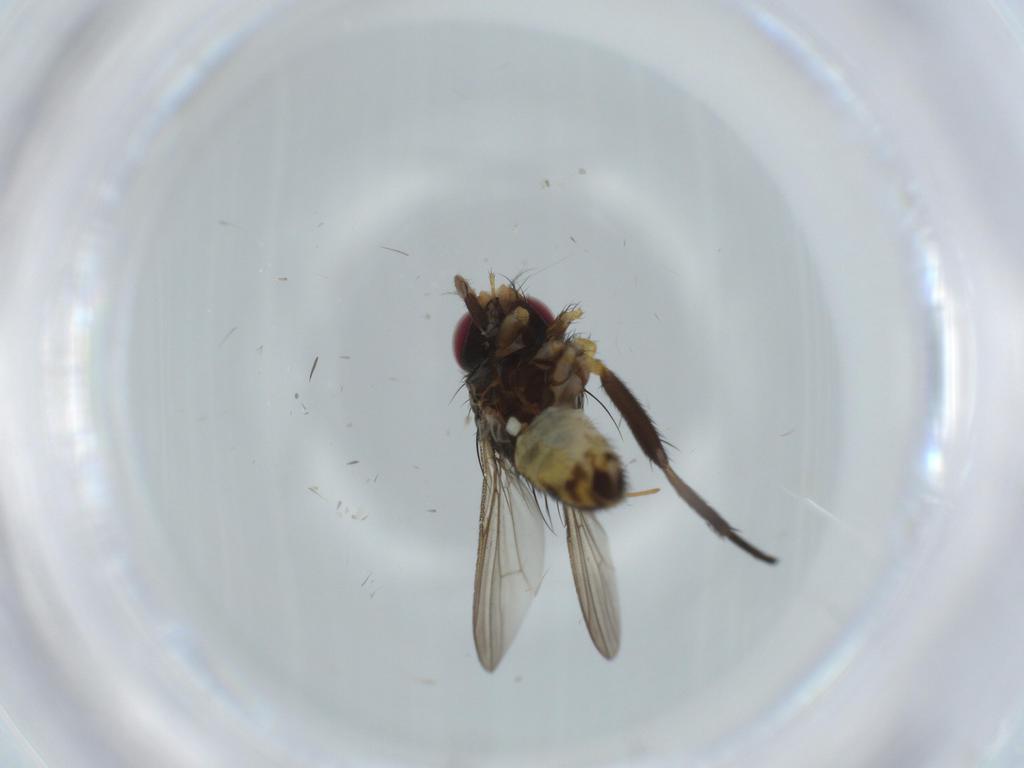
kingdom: Animalia
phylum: Arthropoda
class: Insecta
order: Diptera
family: Anthomyiidae
